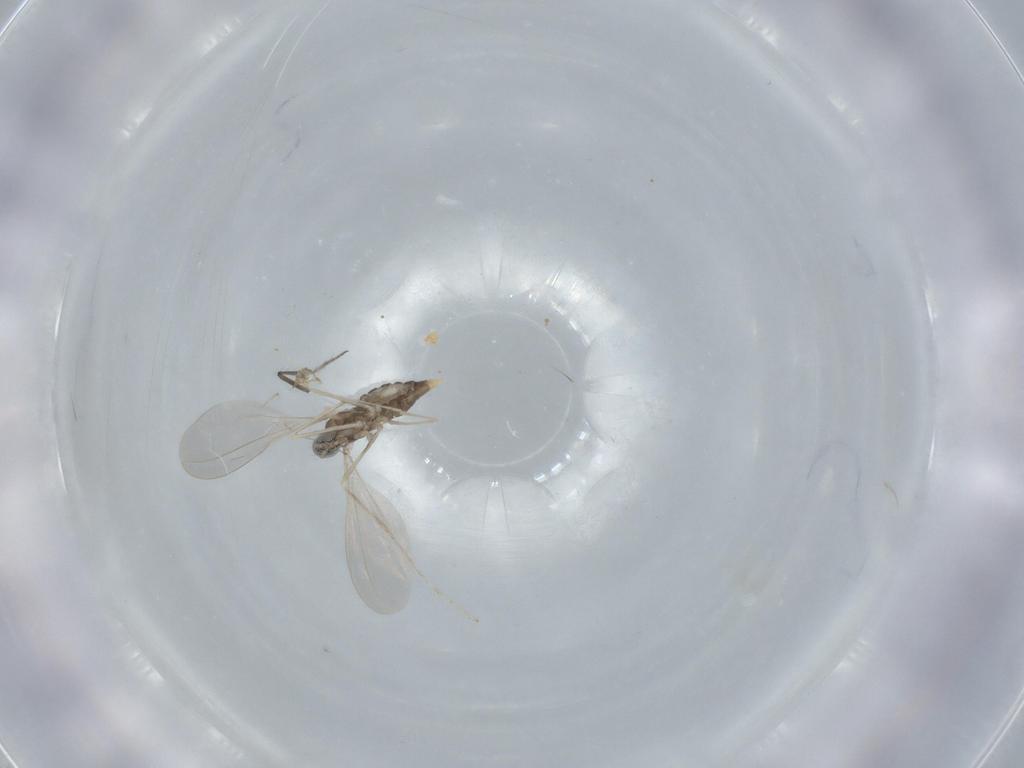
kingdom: Animalia
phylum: Arthropoda
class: Insecta
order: Diptera
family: Ceratopogonidae
